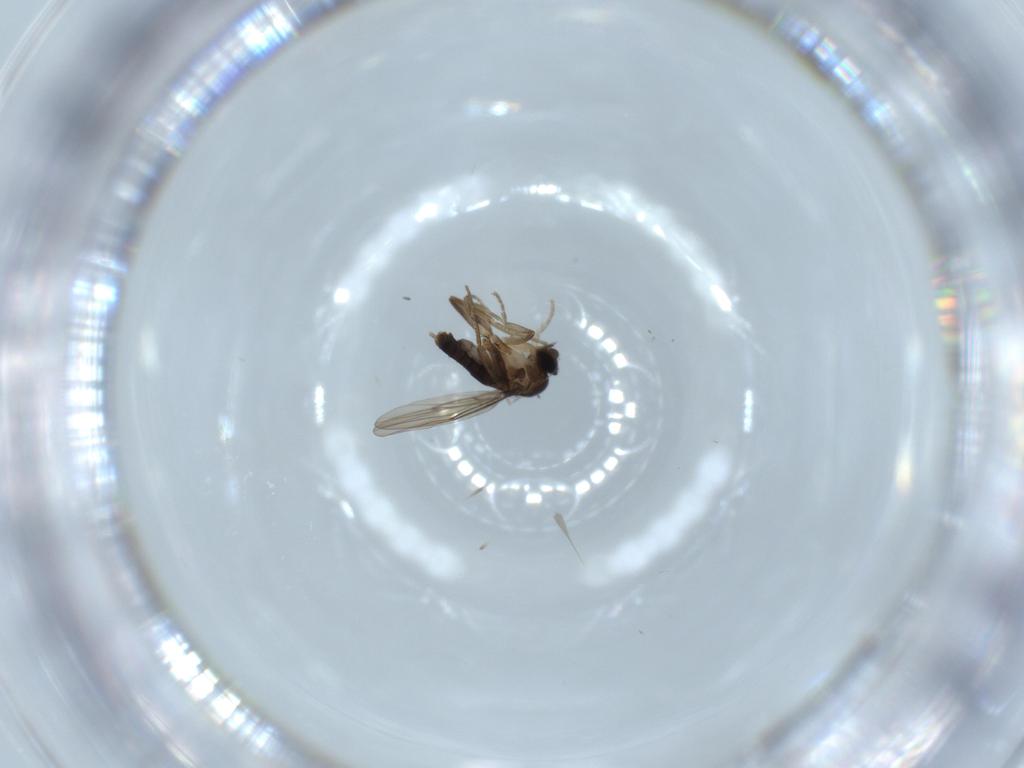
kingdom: Animalia
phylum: Arthropoda
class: Insecta
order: Diptera
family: Phoridae
